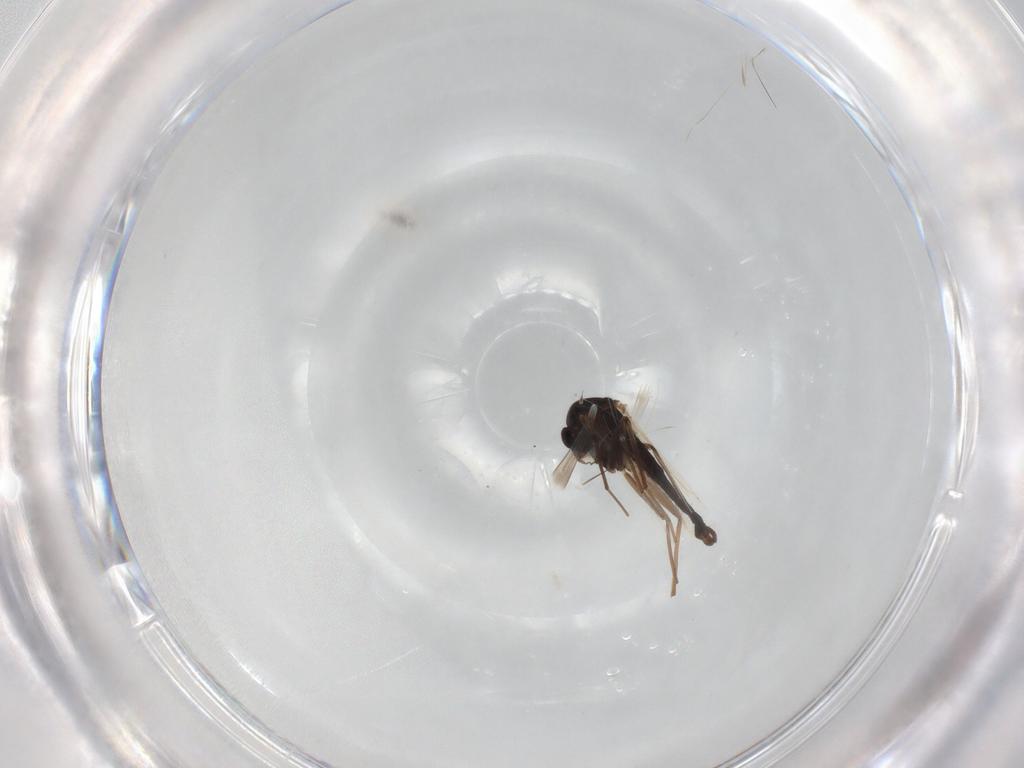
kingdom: Animalia
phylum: Arthropoda
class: Insecta
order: Diptera
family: Chironomidae
